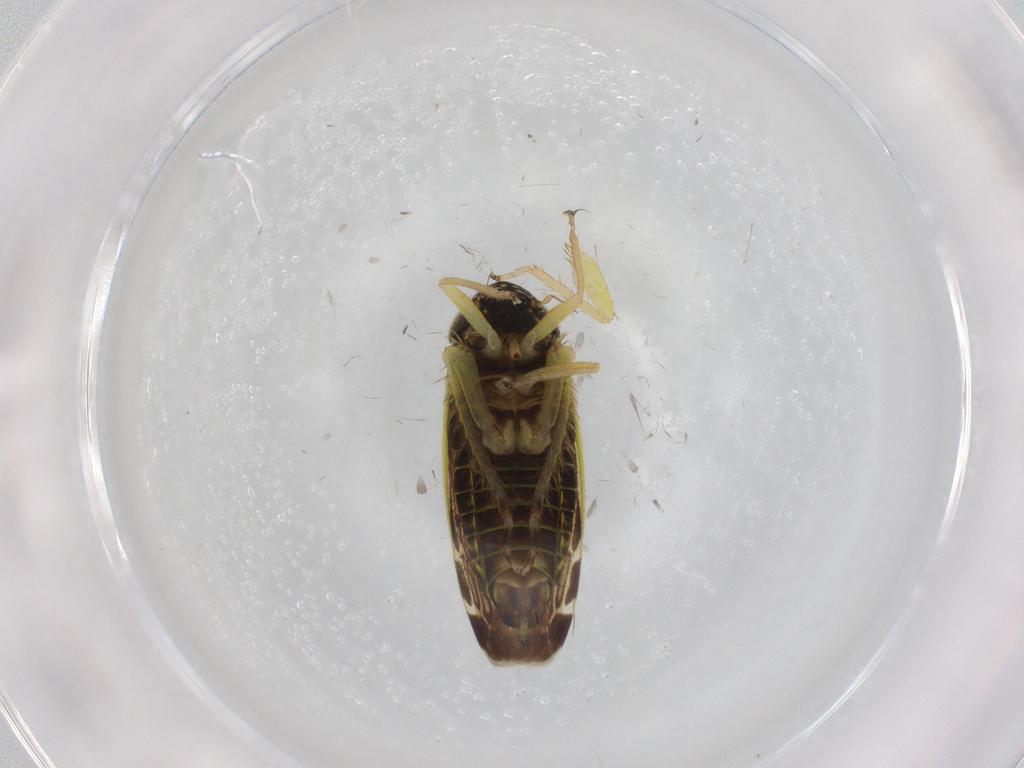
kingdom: Animalia
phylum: Arthropoda
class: Insecta
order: Hemiptera
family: Cicadellidae
